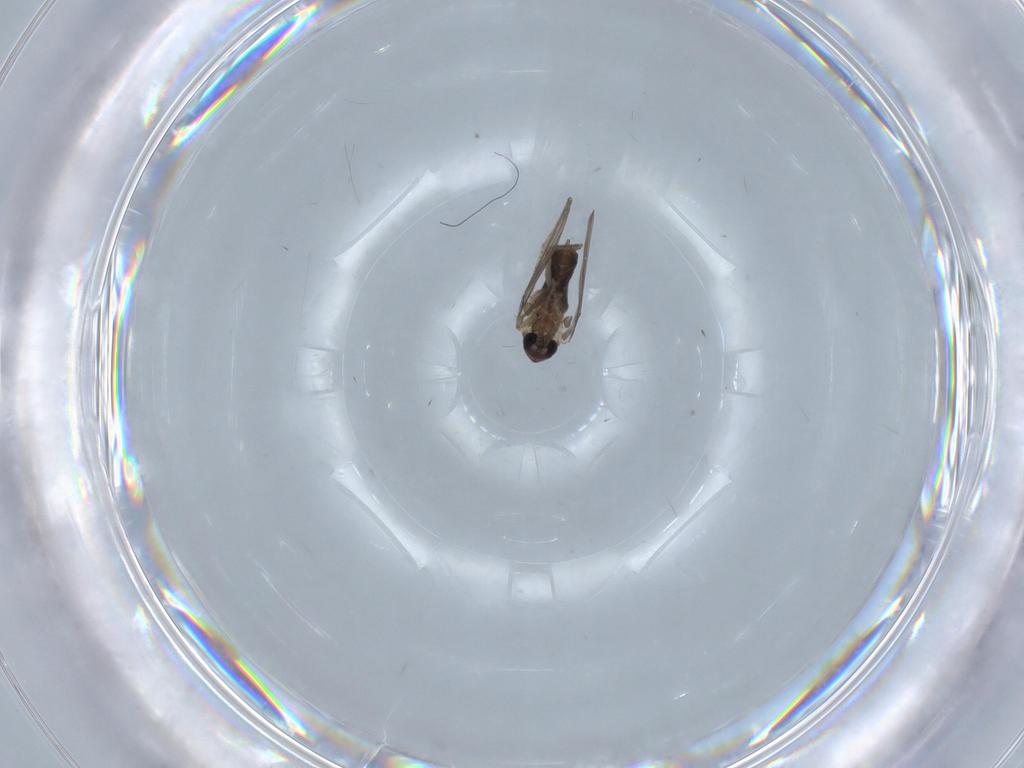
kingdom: Animalia
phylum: Arthropoda
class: Insecta
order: Diptera
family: Psychodidae
